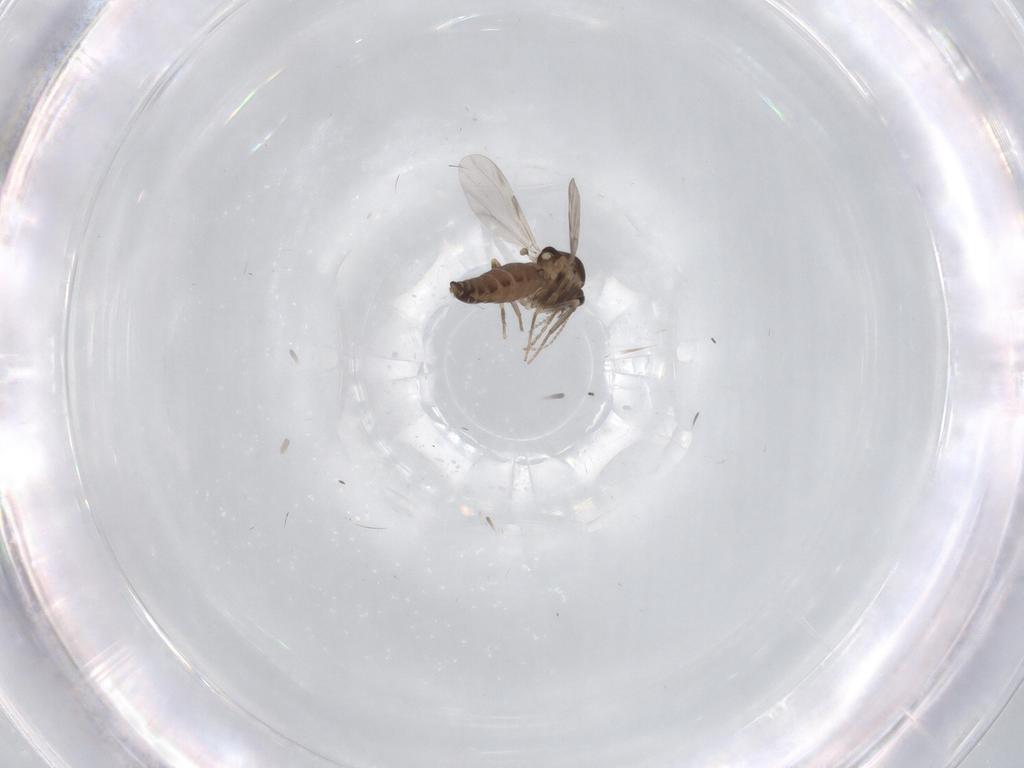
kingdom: Animalia
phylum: Arthropoda
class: Insecta
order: Diptera
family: Ceratopogonidae
